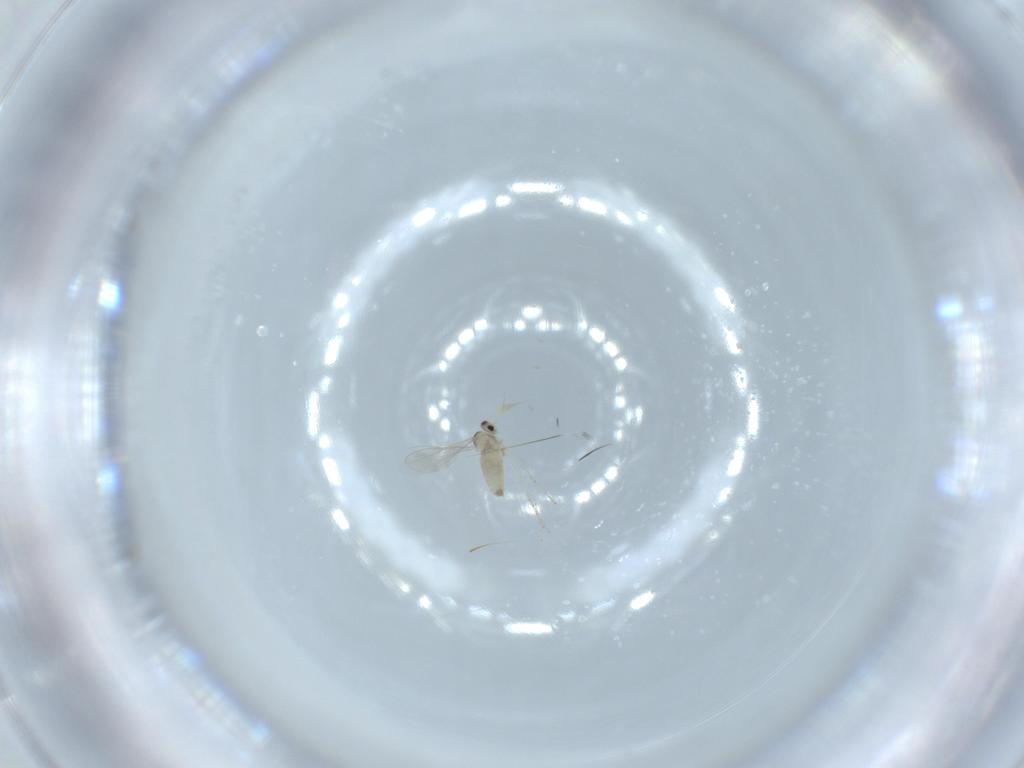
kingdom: Animalia
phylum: Arthropoda
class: Insecta
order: Diptera
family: Cecidomyiidae
